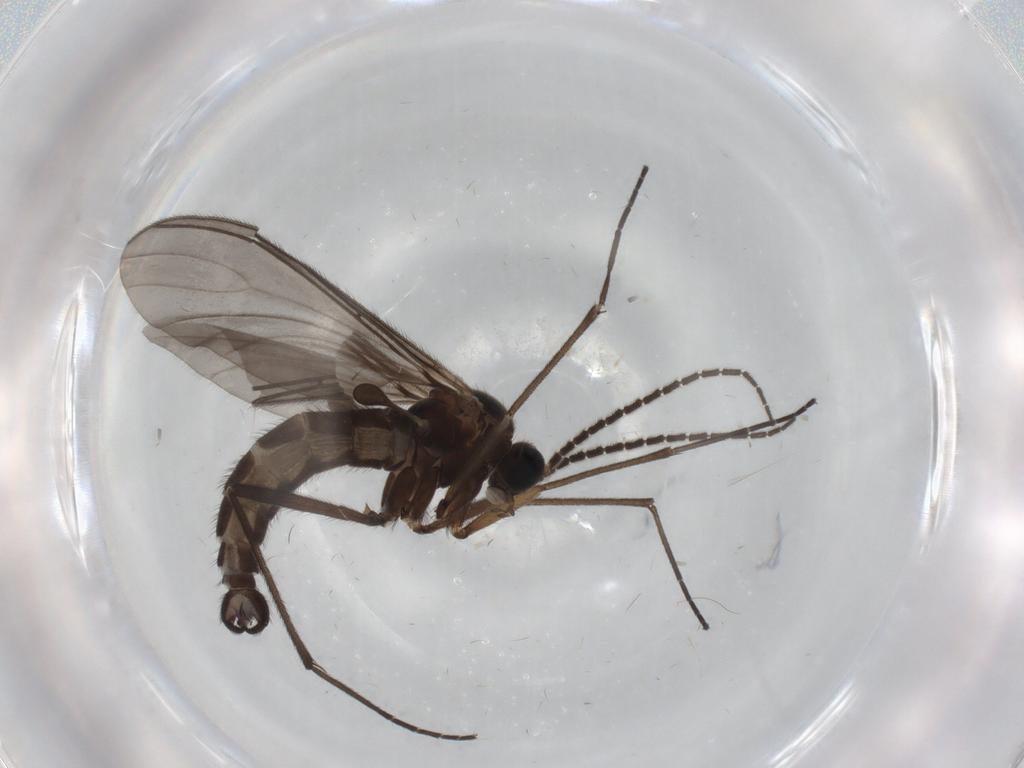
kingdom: Animalia
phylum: Arthropoda
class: Insecta
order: Diptera
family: Sciaridae
